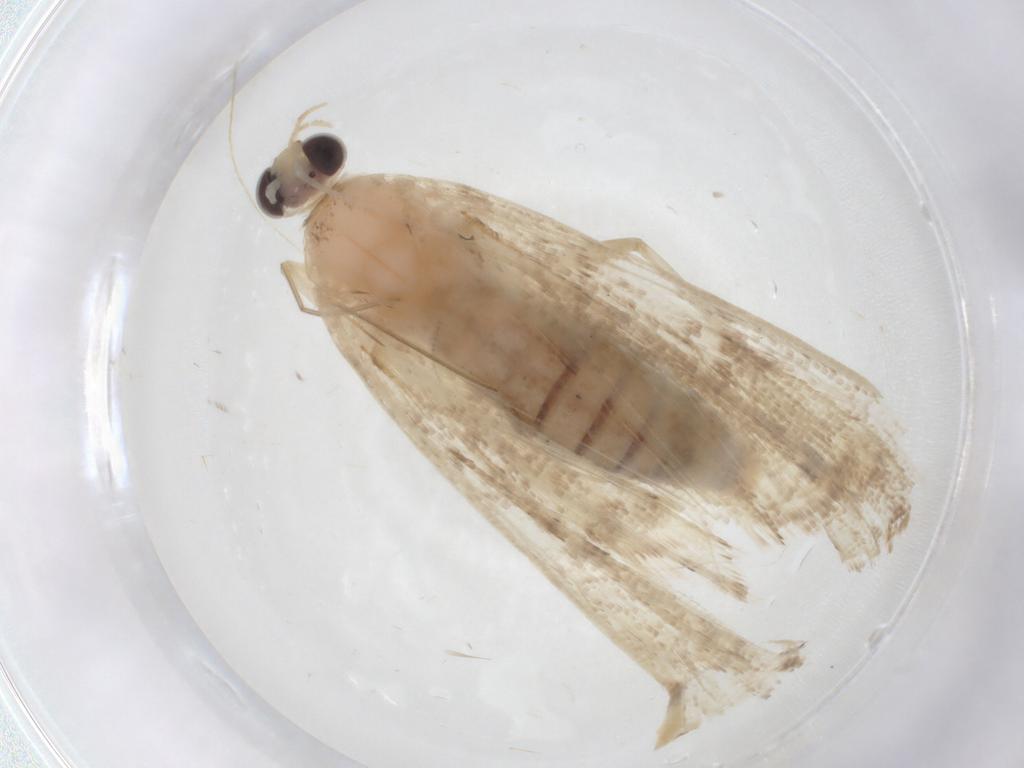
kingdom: Animalia
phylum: Arthropoda
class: Insecta
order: Lepidoptera
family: Crambidae
